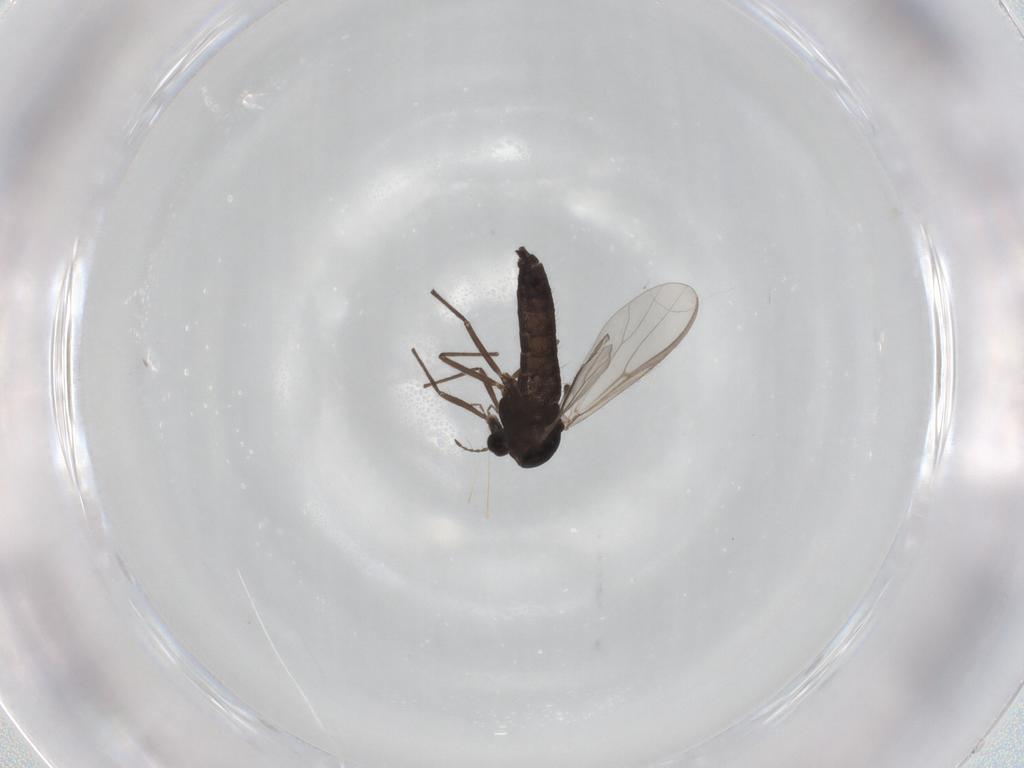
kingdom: Animalia
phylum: Arthropoda
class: Insecta
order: Diptera
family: Chironomidae
